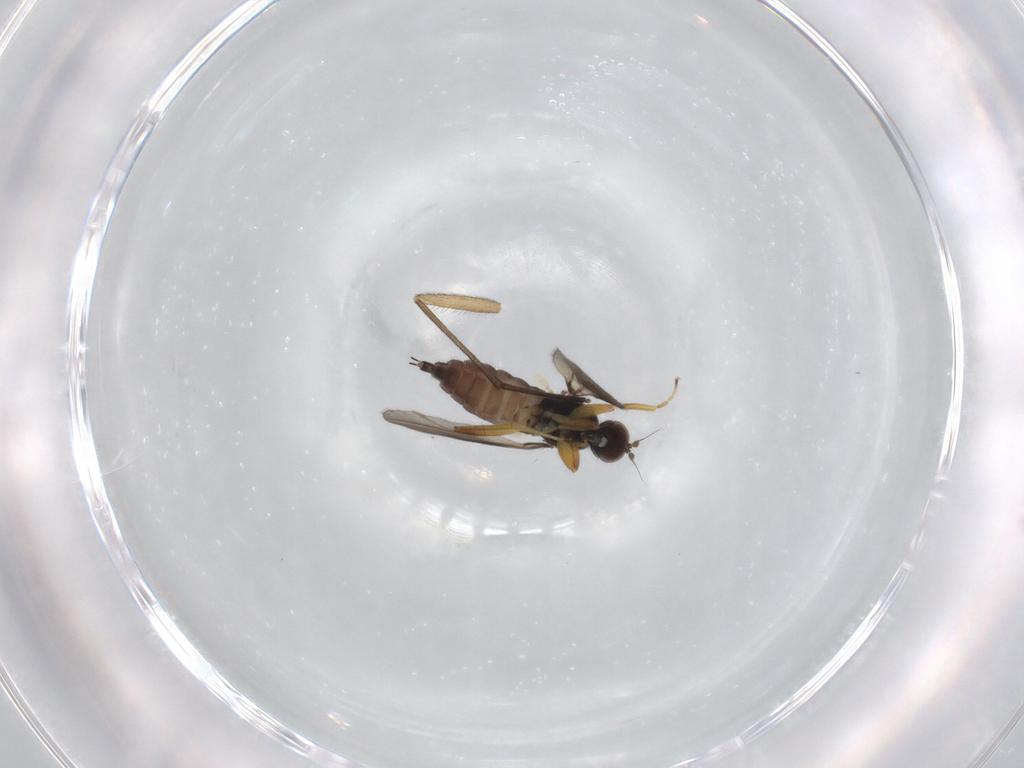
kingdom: Animalia
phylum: Arthropoda
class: Insecta
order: Diptera
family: Hybotidae
